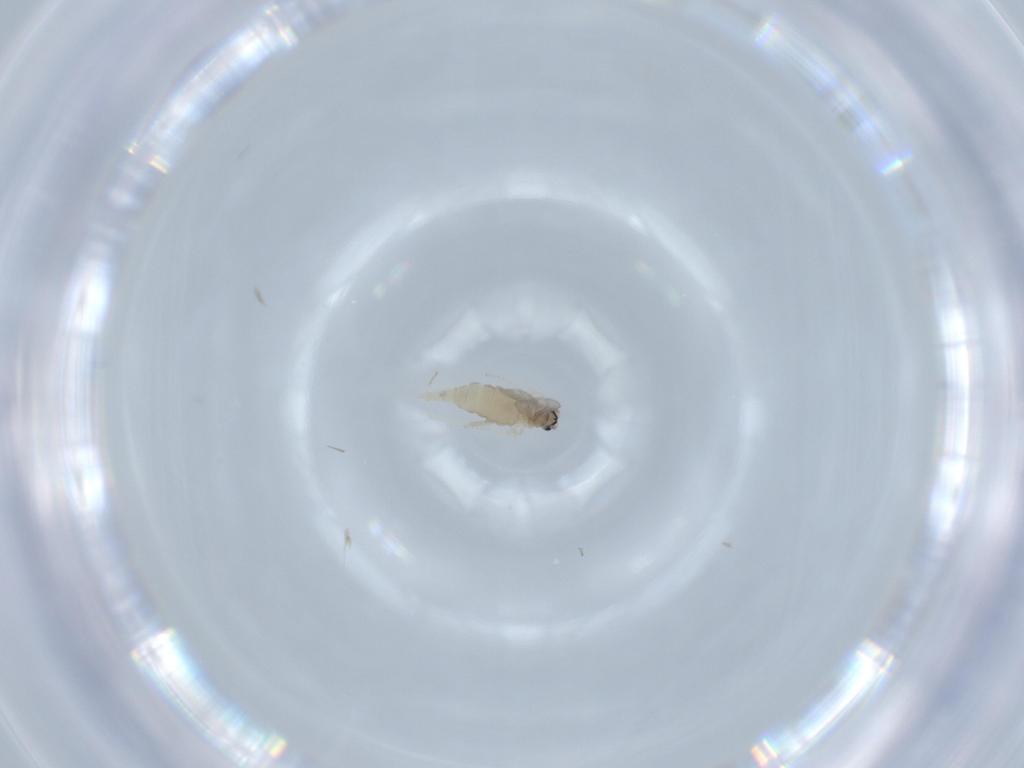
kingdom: Animalia
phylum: Arthropoda
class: Insecta
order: Diptera
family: Cecidomyiidae
